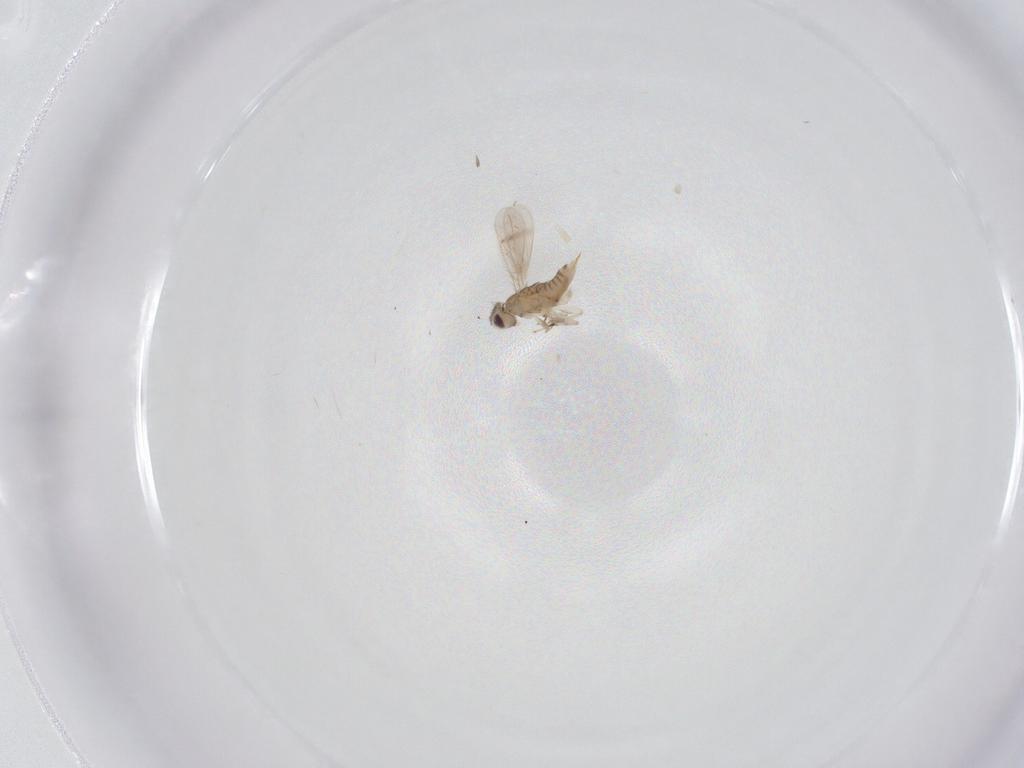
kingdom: Animalia
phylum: Arthropoda
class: Insecta
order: Hymenoptera
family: Aphelinidae
